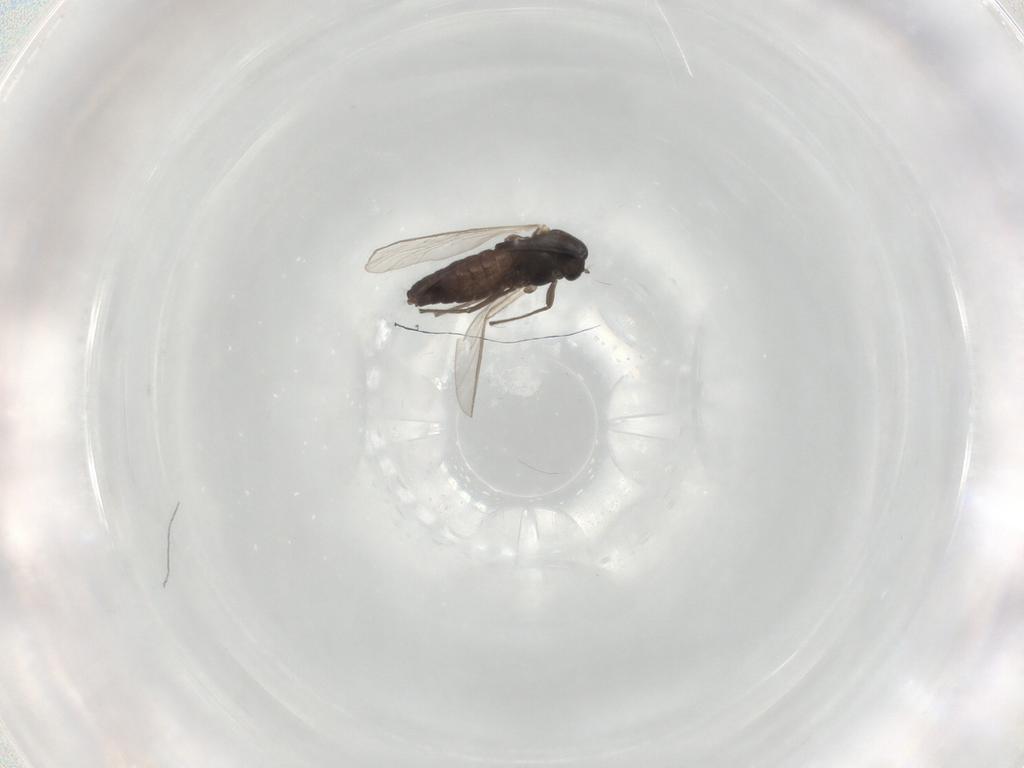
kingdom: Animalia
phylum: Arthropoda
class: Insecta
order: Diptera
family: Chironomidae
